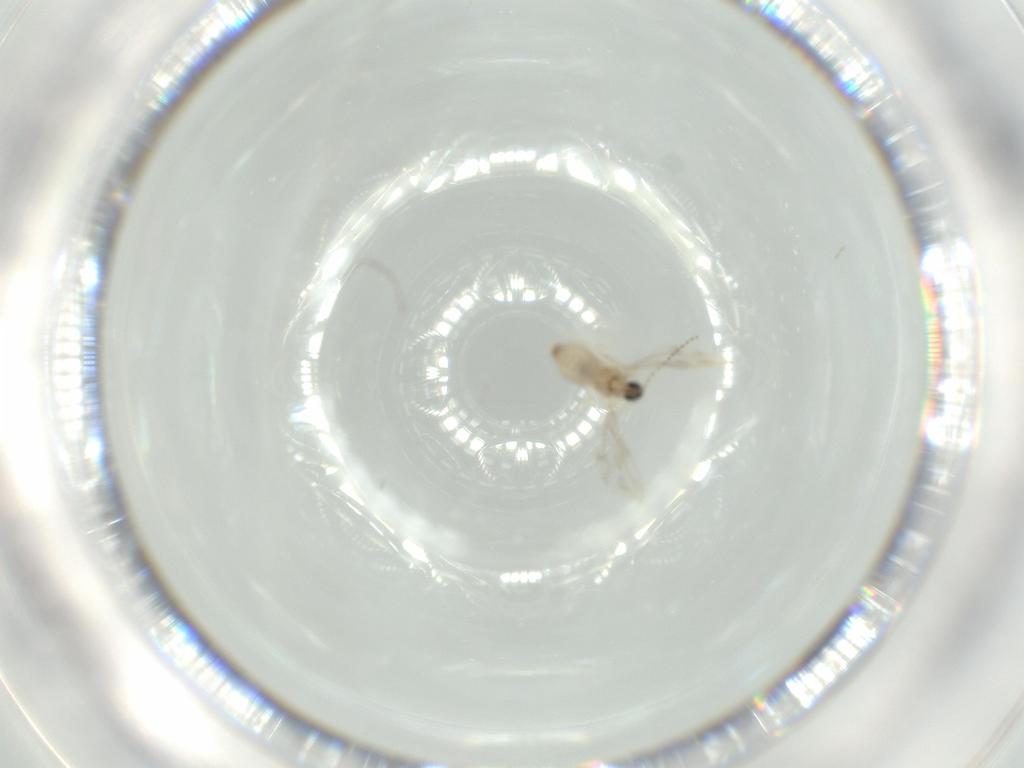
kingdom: Animalia
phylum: Arthropoda
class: Insecta
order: Diptera
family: Cecidomyiidae
